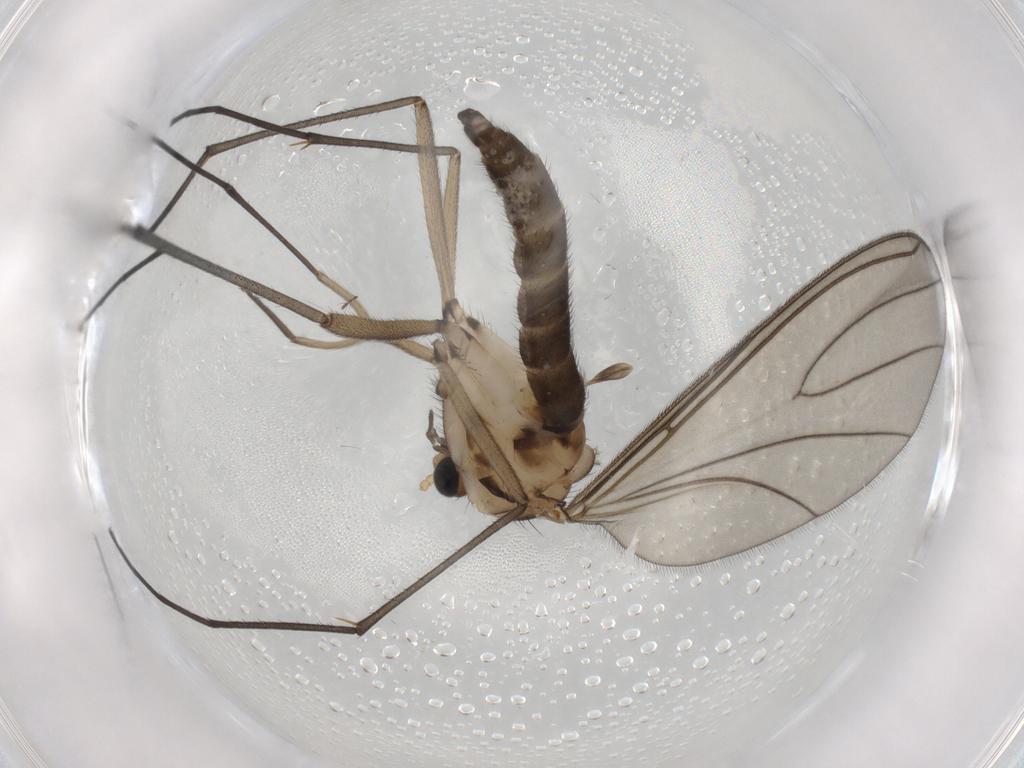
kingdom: Animalia
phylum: Arthropoda
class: Insecta
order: Diptera
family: Sciaridae
